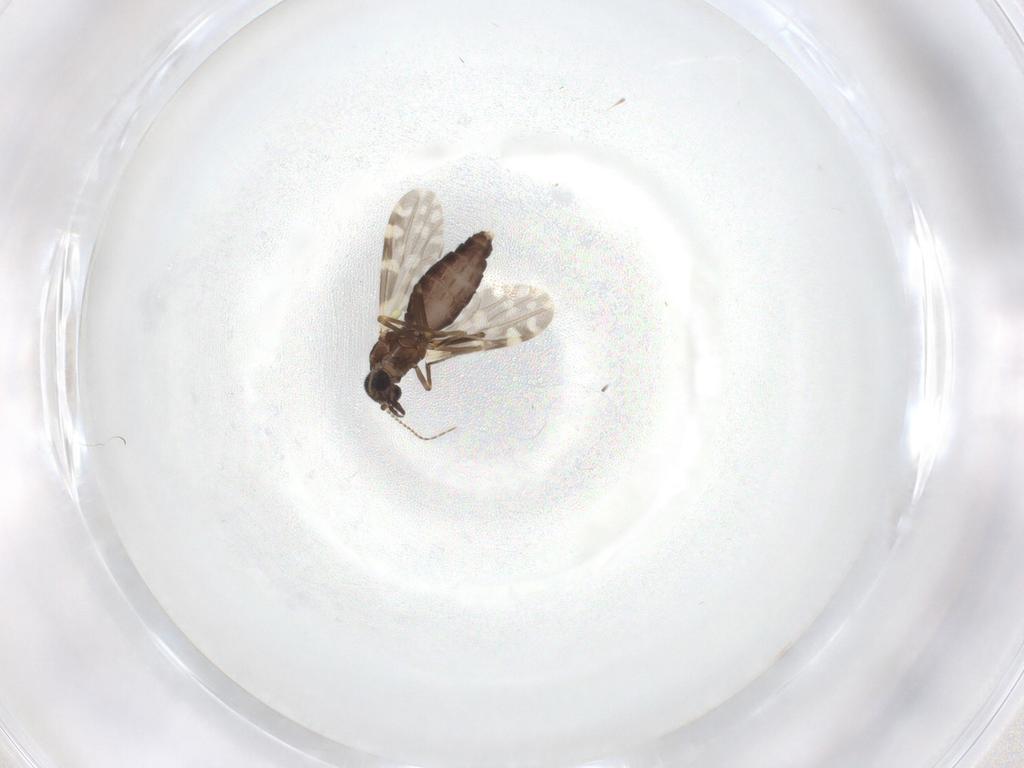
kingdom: Animalia
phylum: Arthropoda
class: Insecta
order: Diptera
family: Ceratopogonidae
